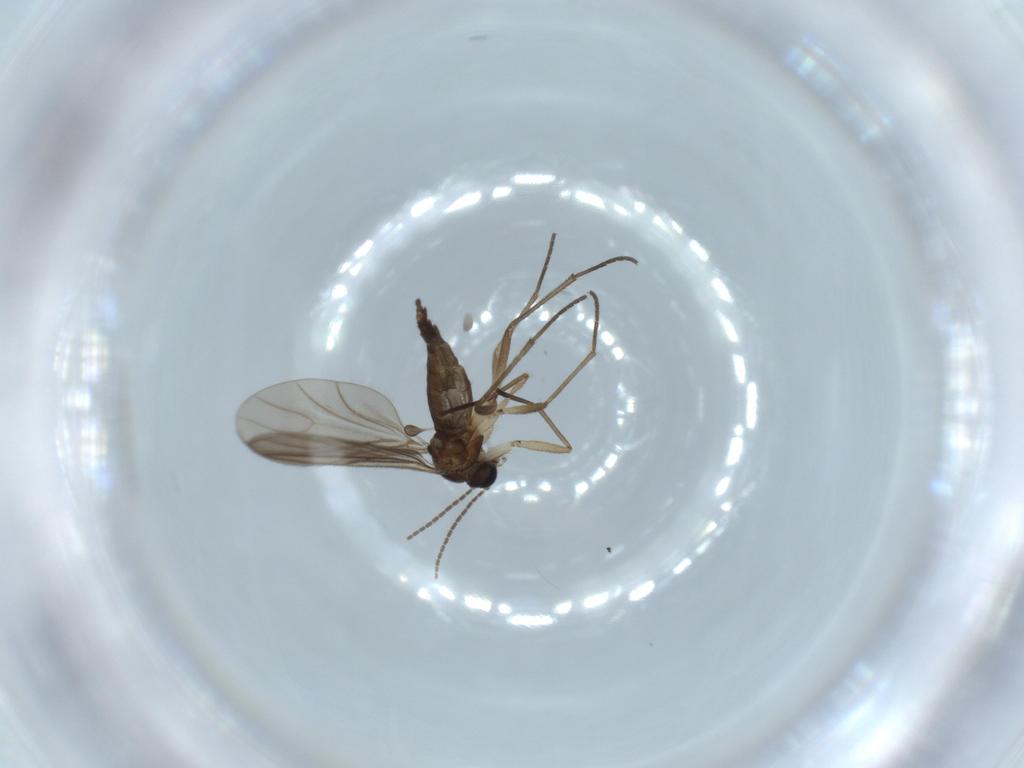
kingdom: Animalia
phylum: Arthropoda
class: Insecta
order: Diptera
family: Sciaridae
